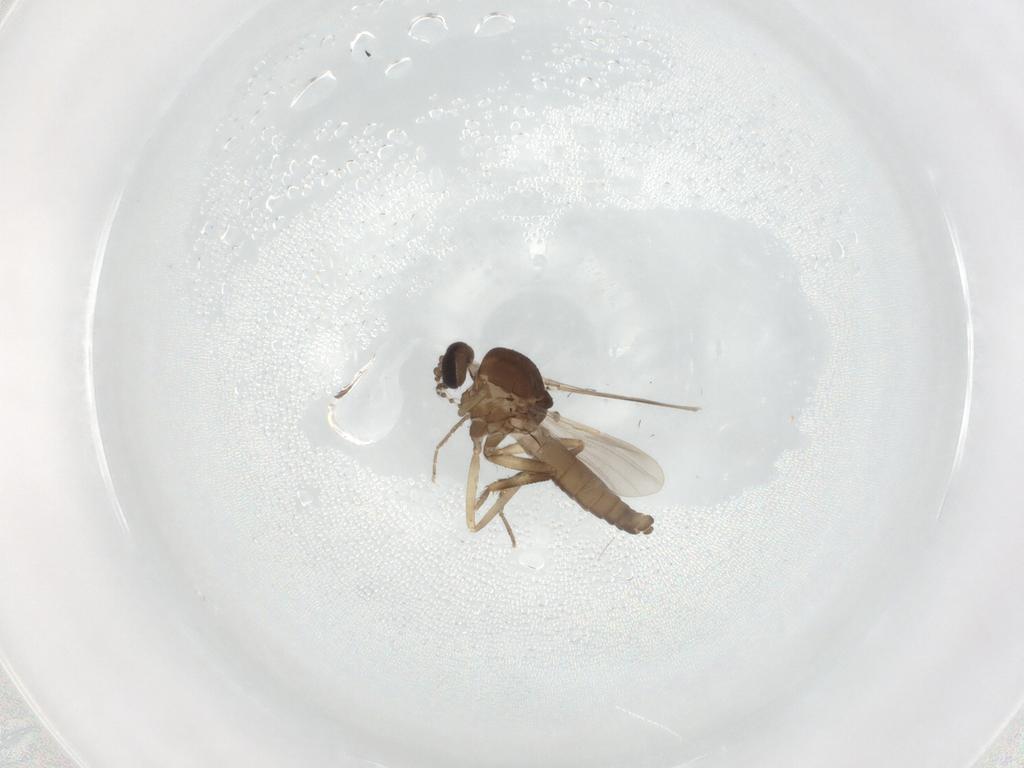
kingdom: Animalia
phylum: Arthropoda
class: Insecta
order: Diptera
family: Ceratopogonidae
